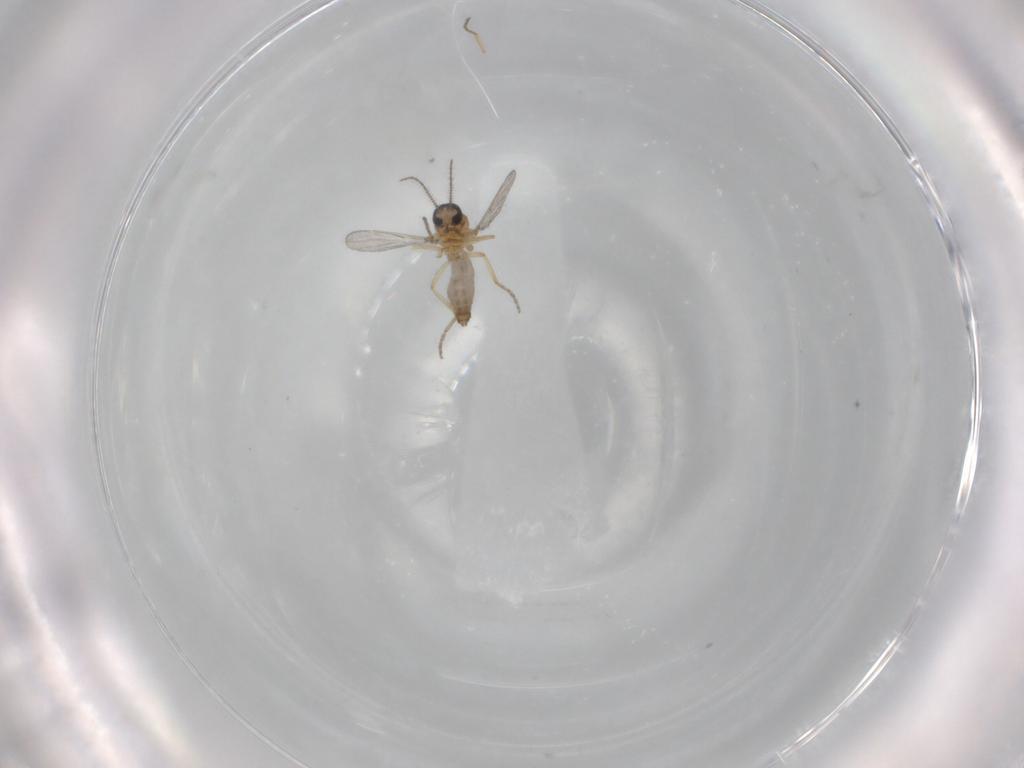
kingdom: Animalia
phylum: Arthropoda
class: Insecta
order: Diptera
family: Ceratopogonidae
